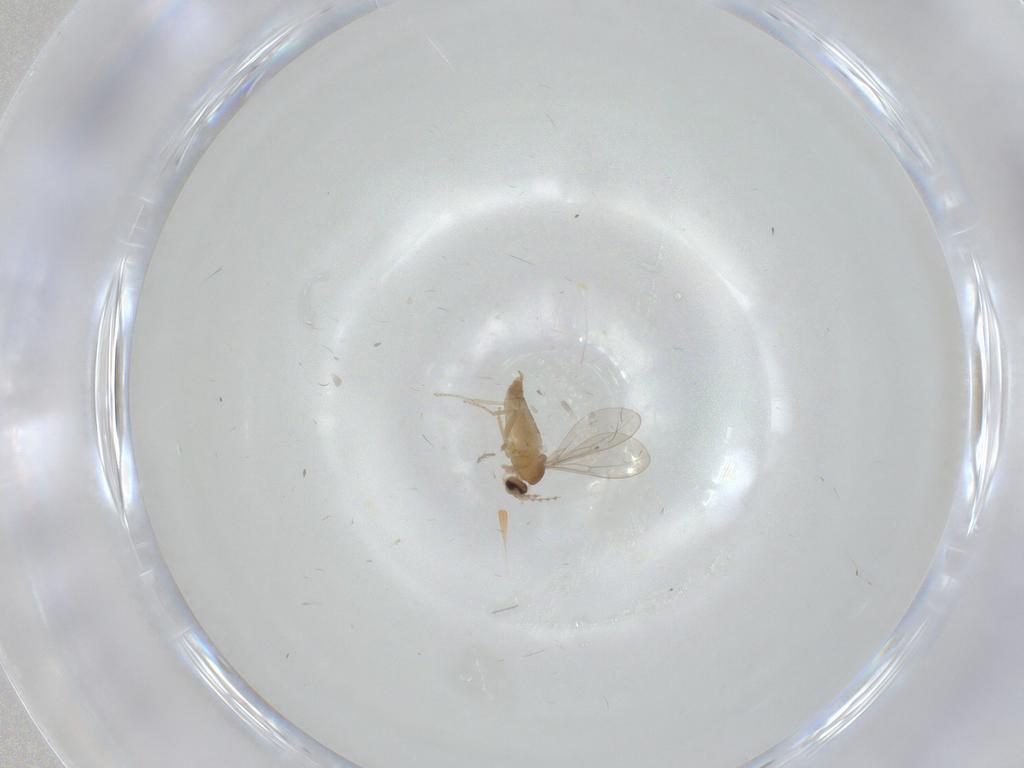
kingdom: Animalia
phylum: Arthropoda
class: Insecta
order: Diptera
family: Cecidomyiidae
